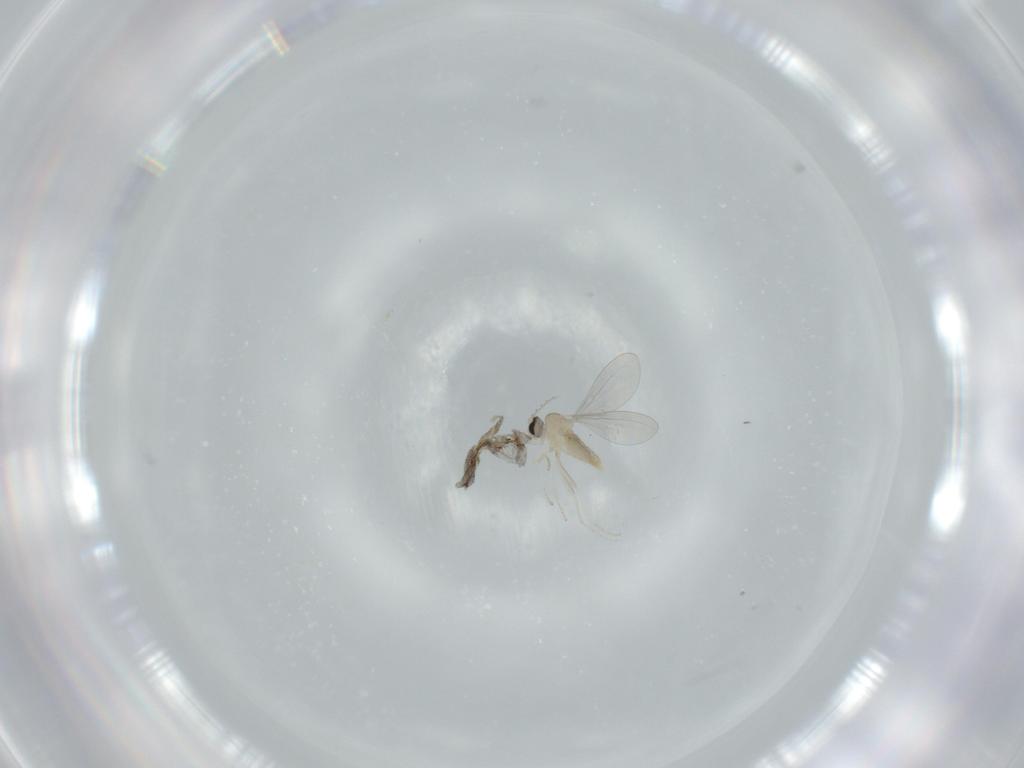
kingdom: Animalia
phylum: Arthropoda
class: Insecta
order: Diptera
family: Cecidomyiidae
